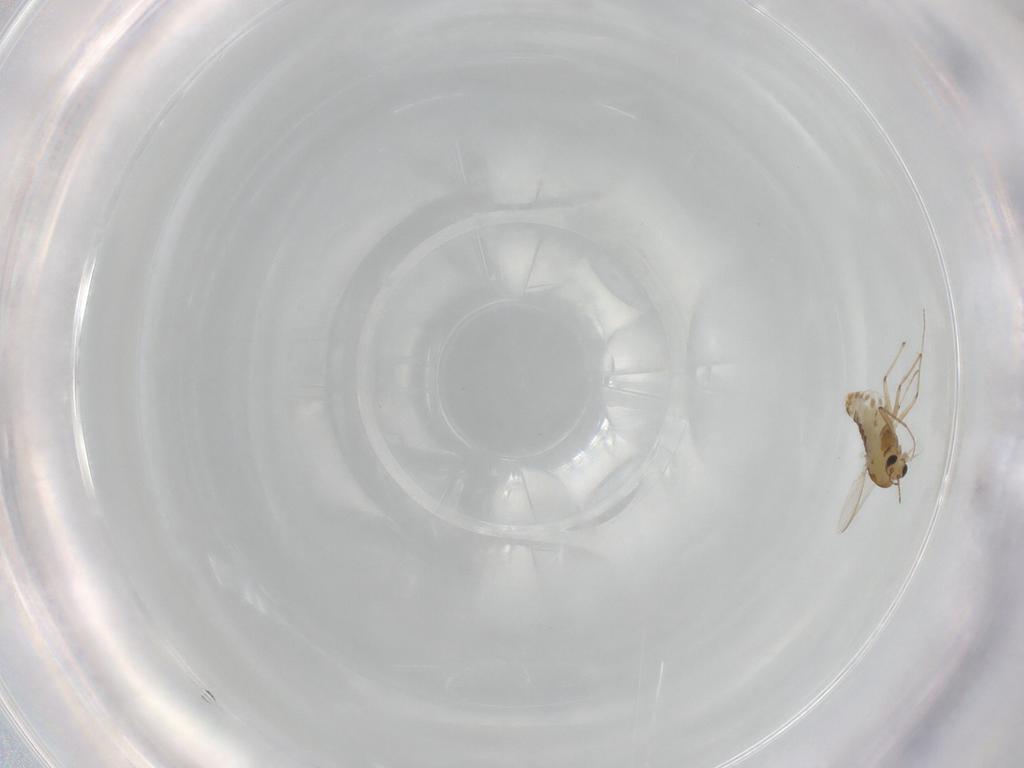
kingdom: Animalia
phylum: Arthropoda
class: Insecta
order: Diptera
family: Chironomidae
